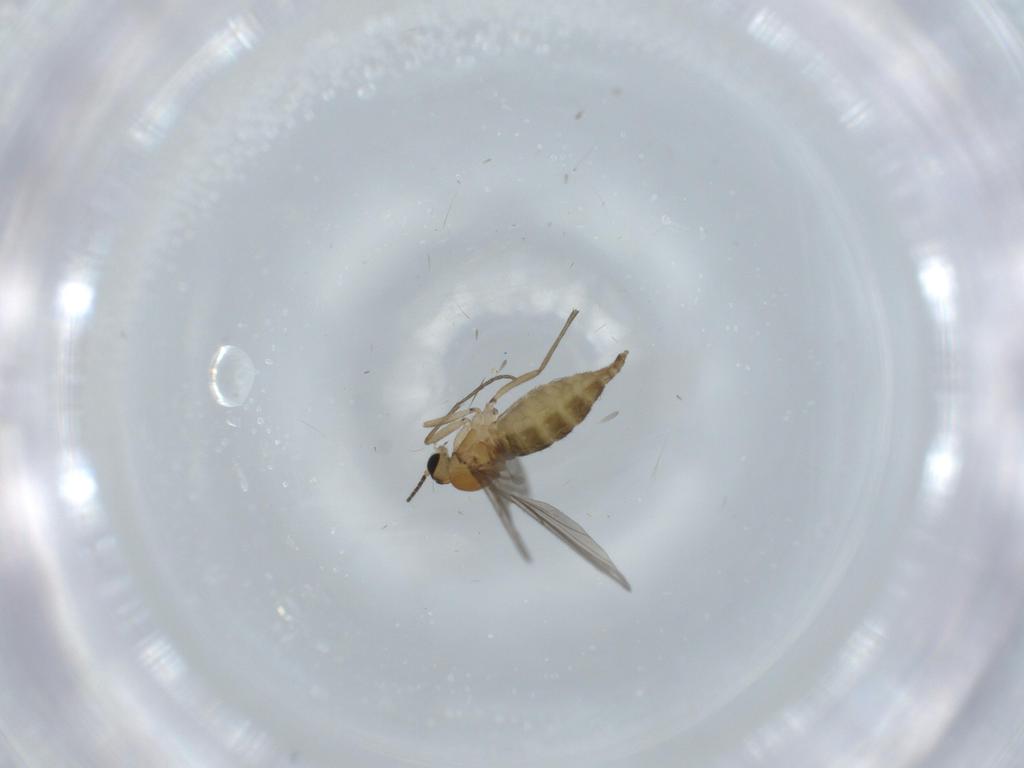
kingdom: Animalia
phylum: Arthropoda
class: Insecta
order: Diptera
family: Sciaridae
